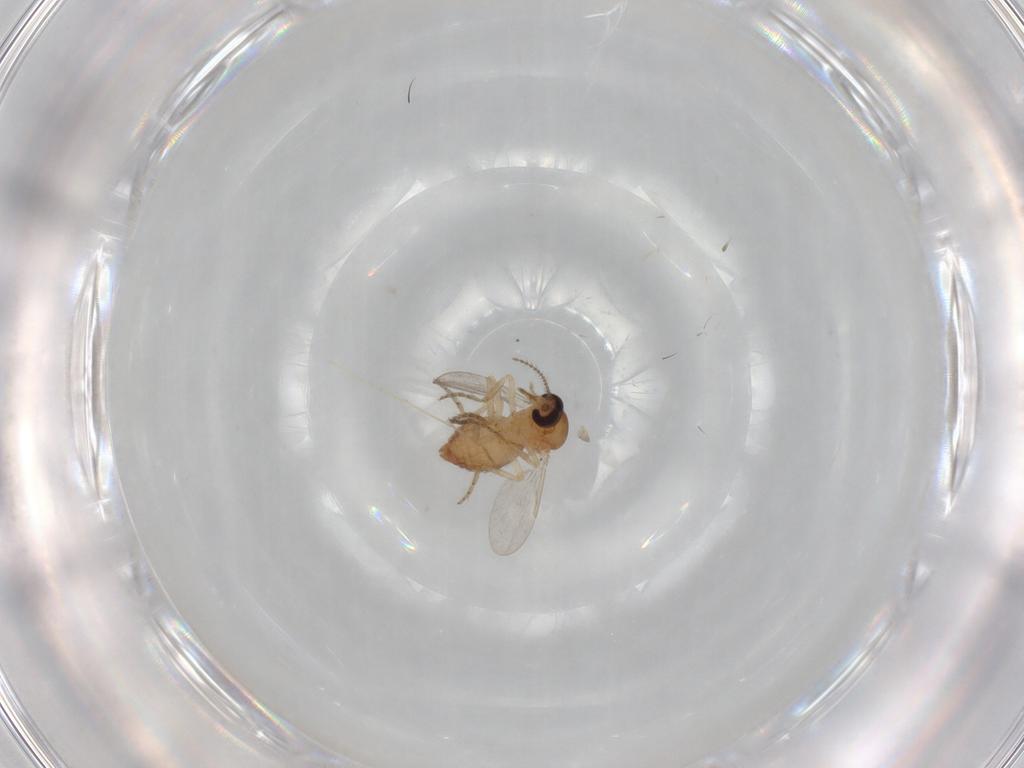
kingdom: Animalia
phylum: Arthropoda
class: Insecta
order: Diptera
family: Ceratopogonidae
